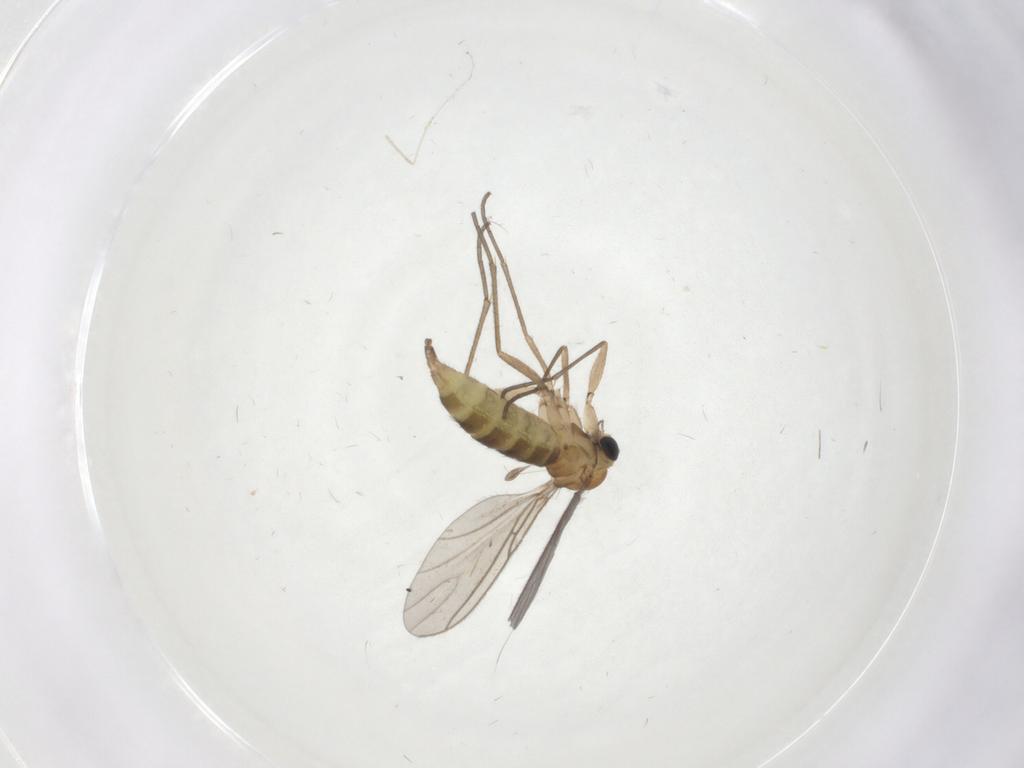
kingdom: Animalia
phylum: Arthropoda
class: Insecta
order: Diptera
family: Sciaridae
